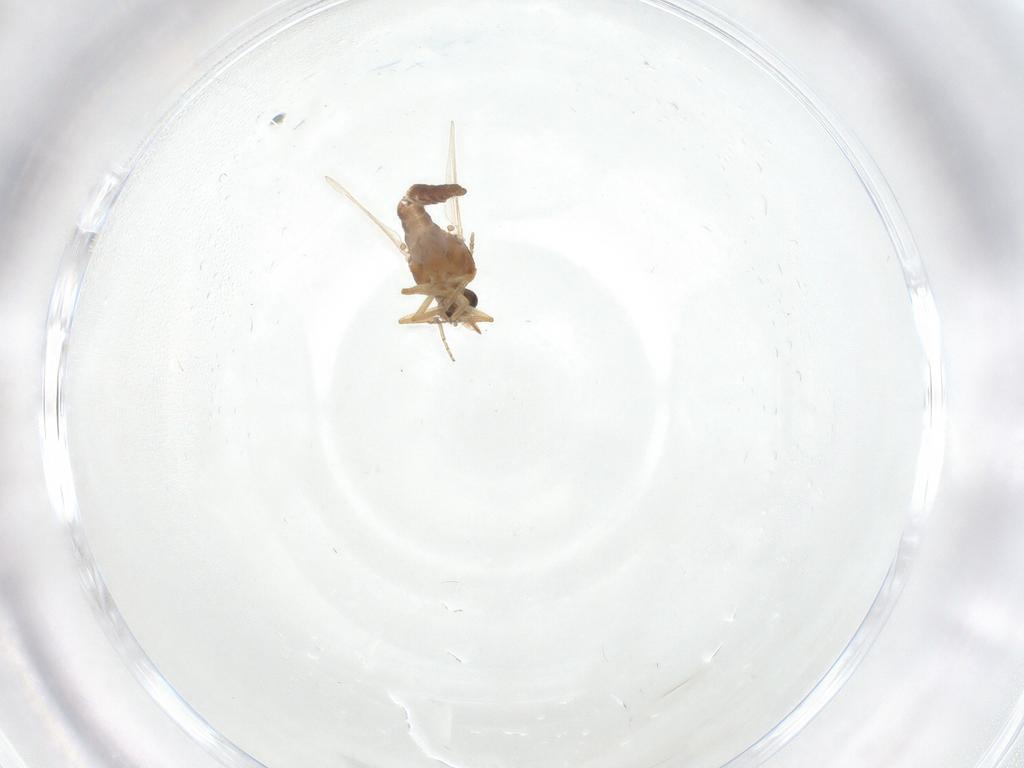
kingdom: Animalia
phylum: Arthropoda
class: Insecta
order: Diptera
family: Ceratopogonidae
